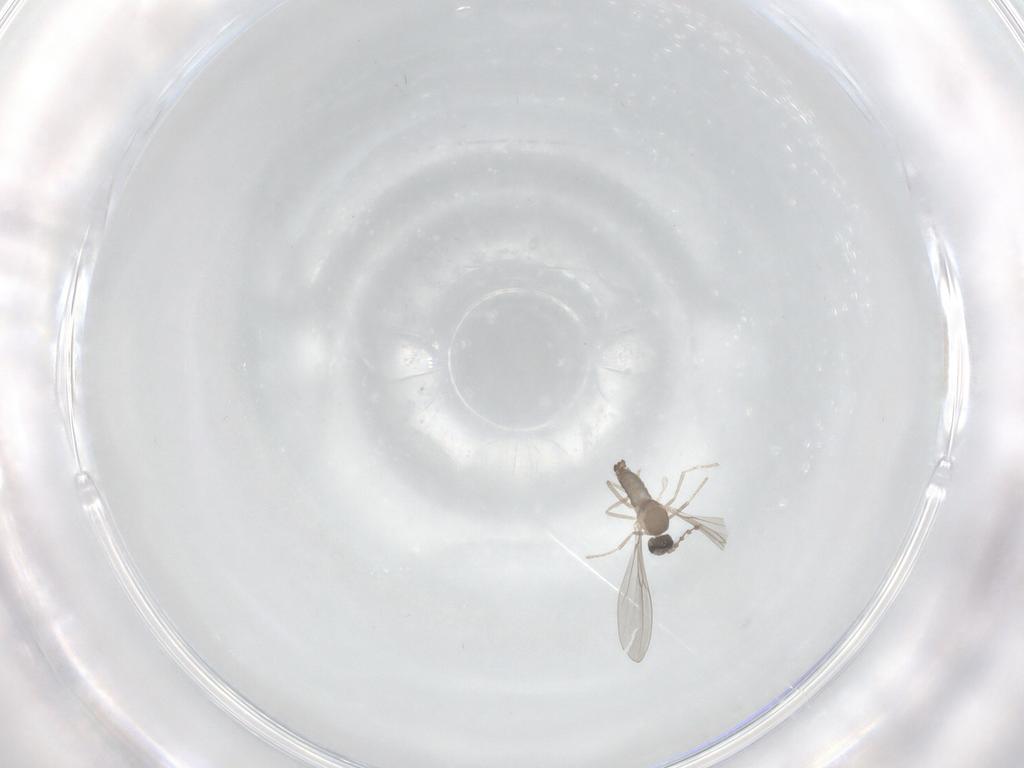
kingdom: Animalia
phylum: Arthropoda
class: Insecta
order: Diptera
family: Cecidomyiidae
